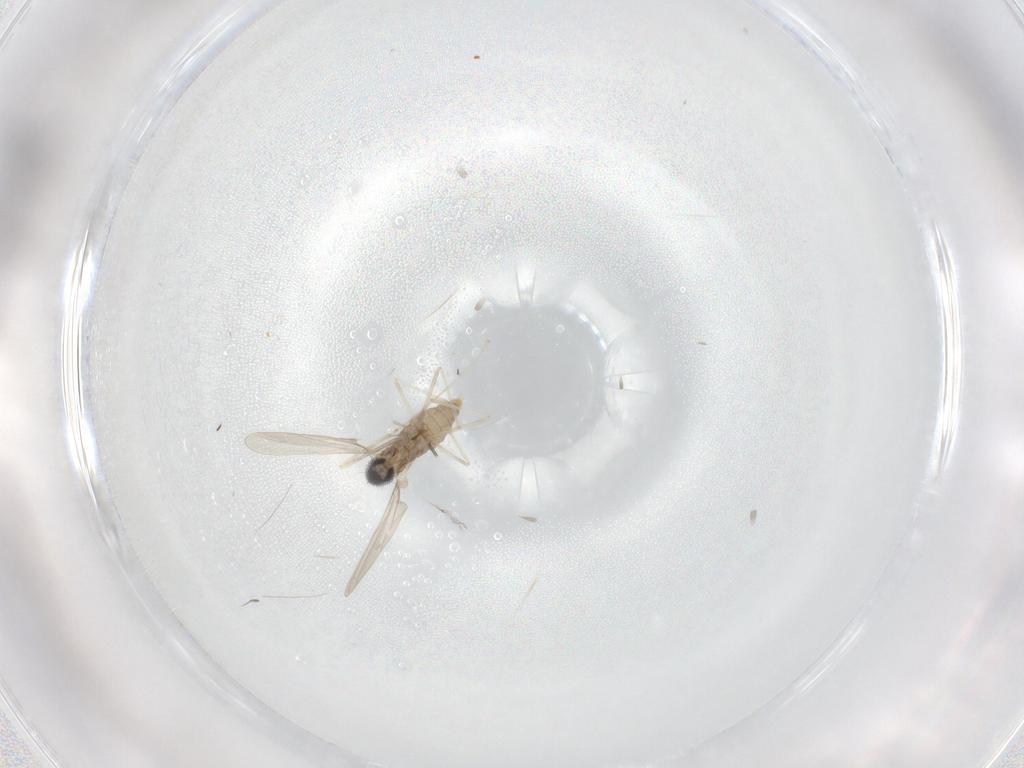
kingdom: Animalia
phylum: Arthropoda
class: Insecta
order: Diptera
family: Cecidomyiidae
